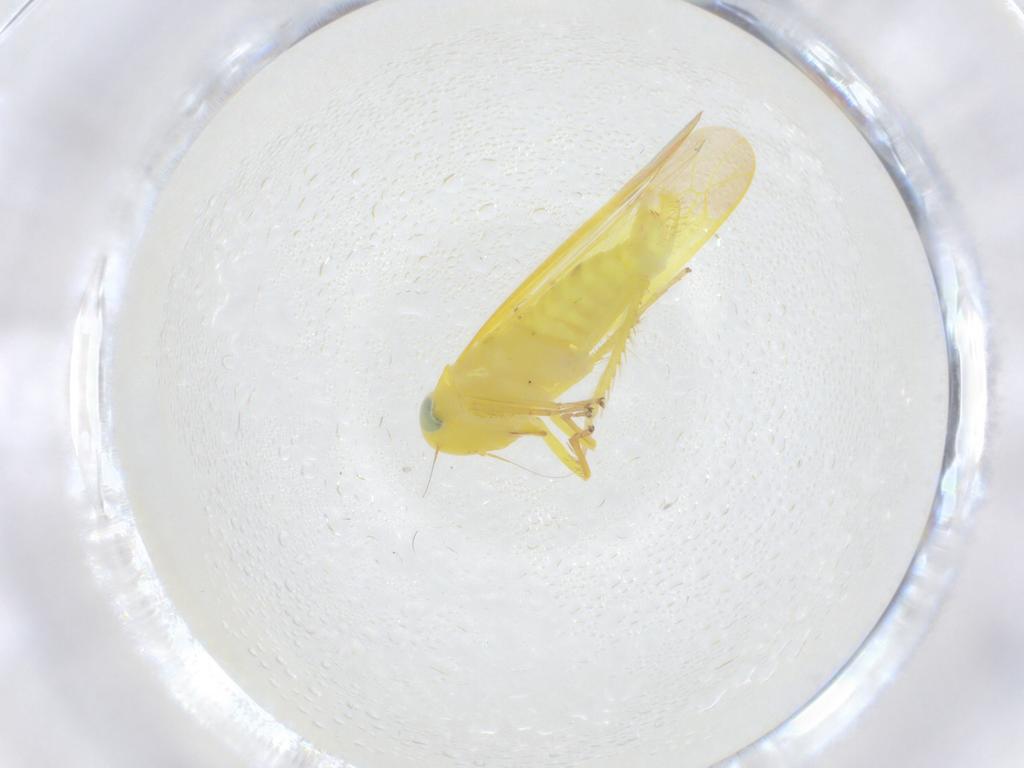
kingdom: Animalia
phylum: Arthropoda
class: Insecta
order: Hemiptera
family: Cicadellidae
